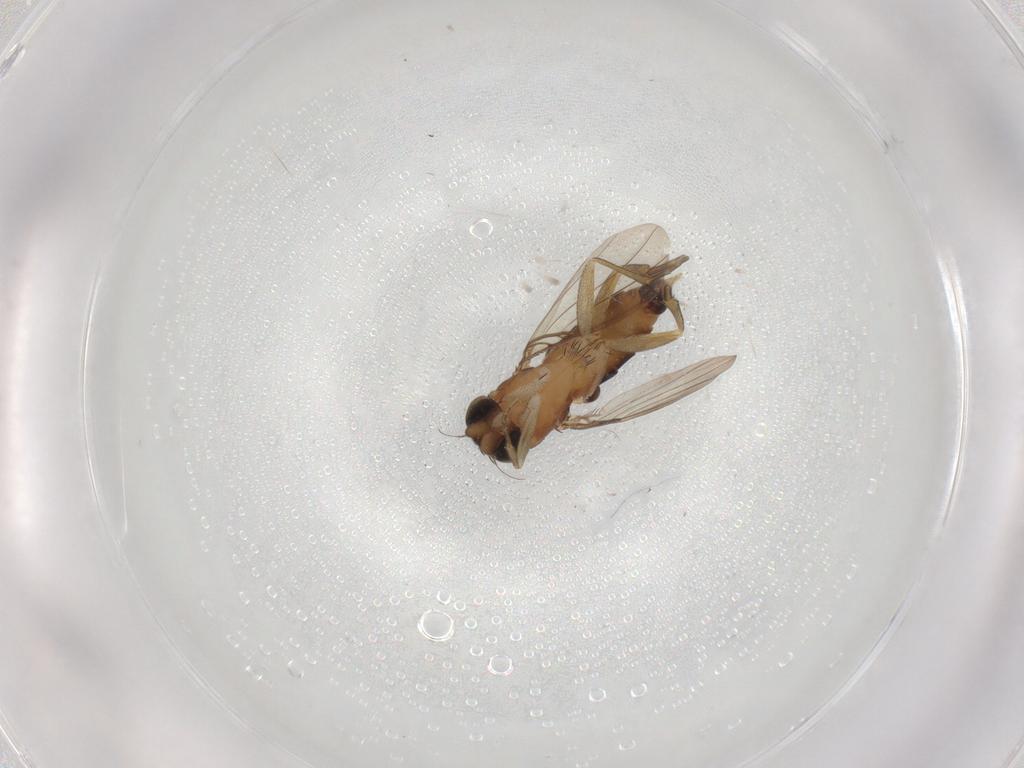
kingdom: Animalia
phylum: Arthropoda
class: Insecta
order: Diptera
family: Phoridae
